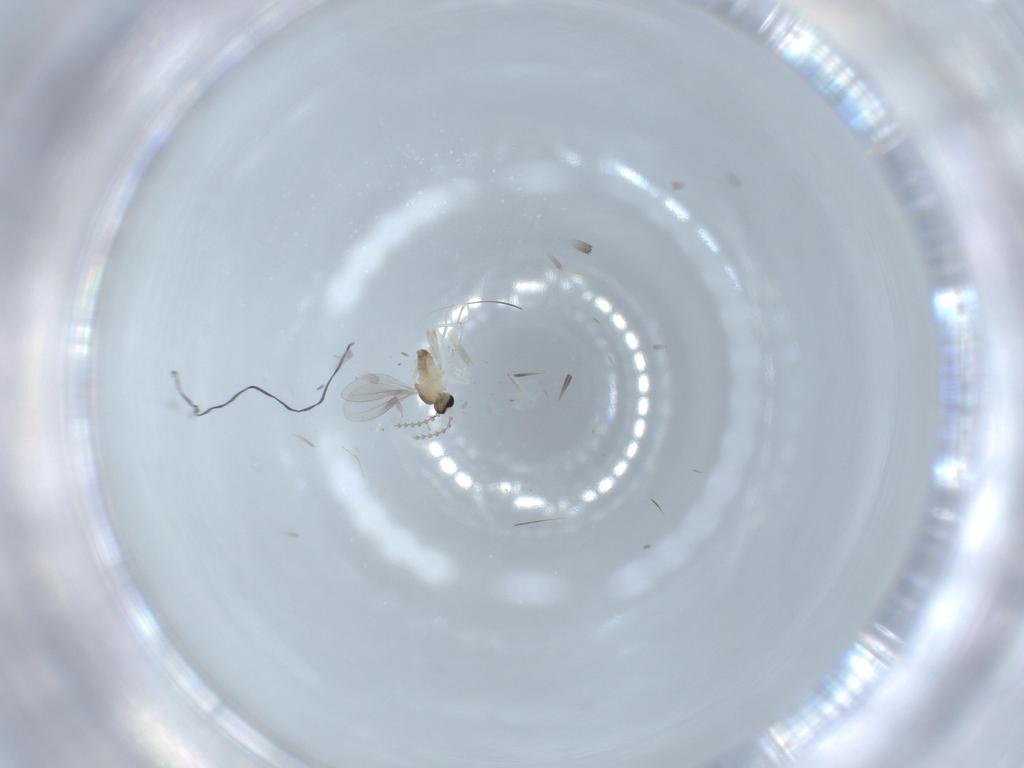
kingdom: Animalia
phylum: Arthropoda
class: Insecta
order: Diptera
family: Cecidomyiidae
